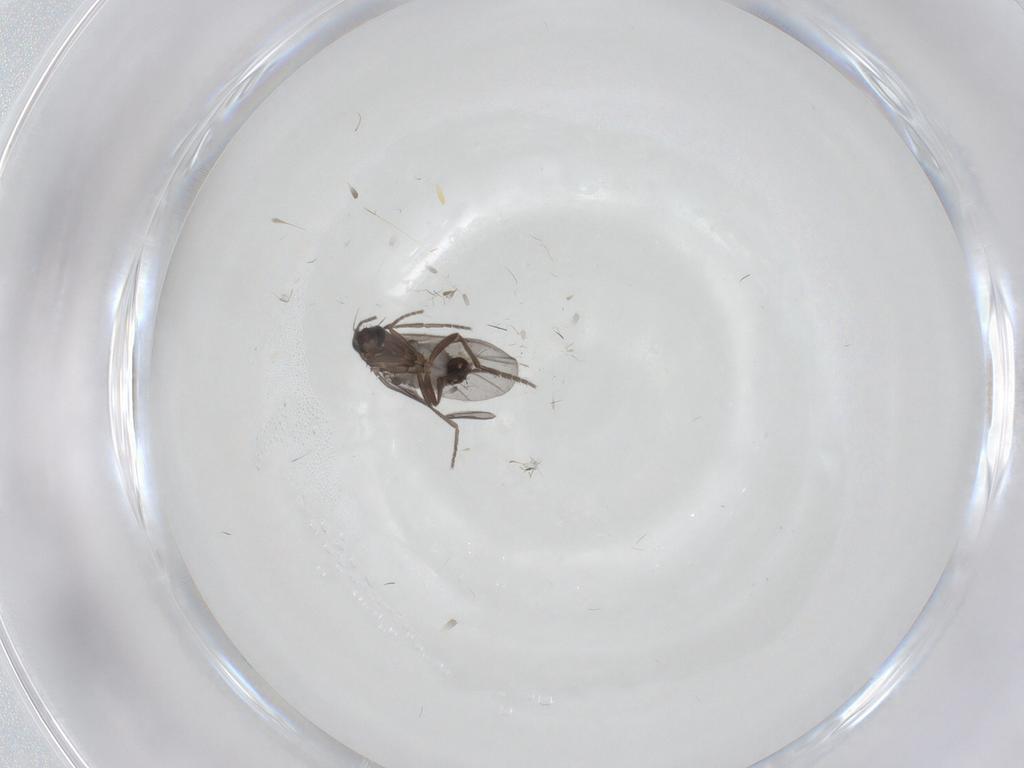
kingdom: Animalia
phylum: Arthropoda
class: Insecta
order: Diptera
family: Phoridae
